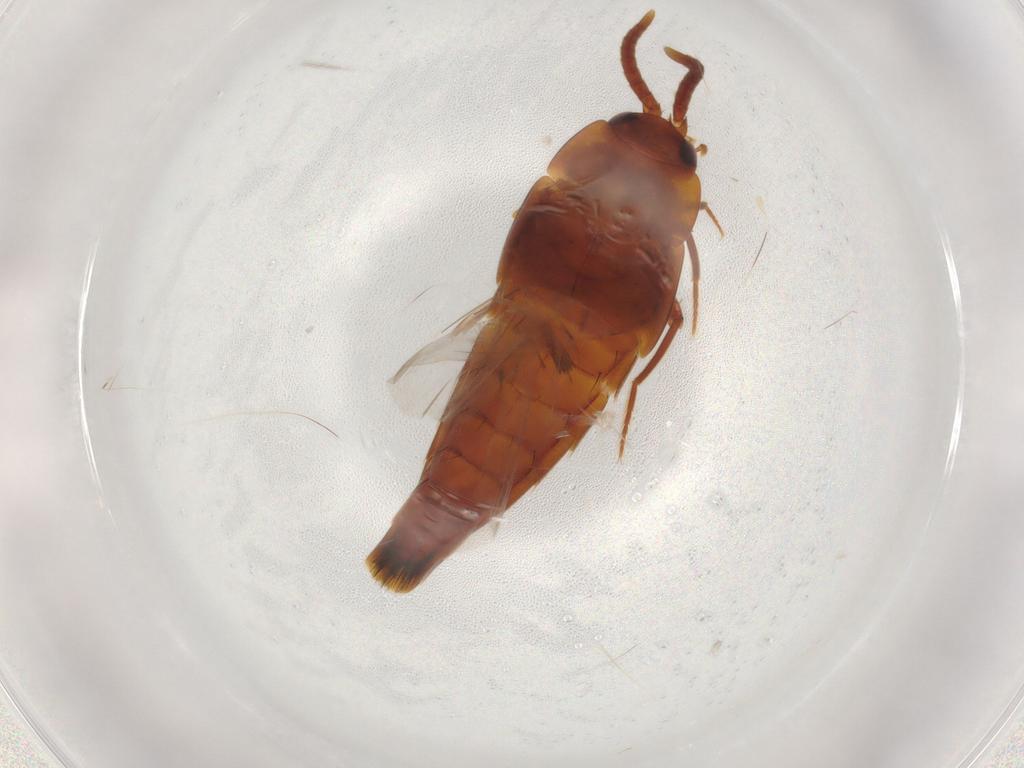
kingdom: Animalia
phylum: Arthropoda
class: Insecta
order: Coleoptera
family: Staphylinidae
